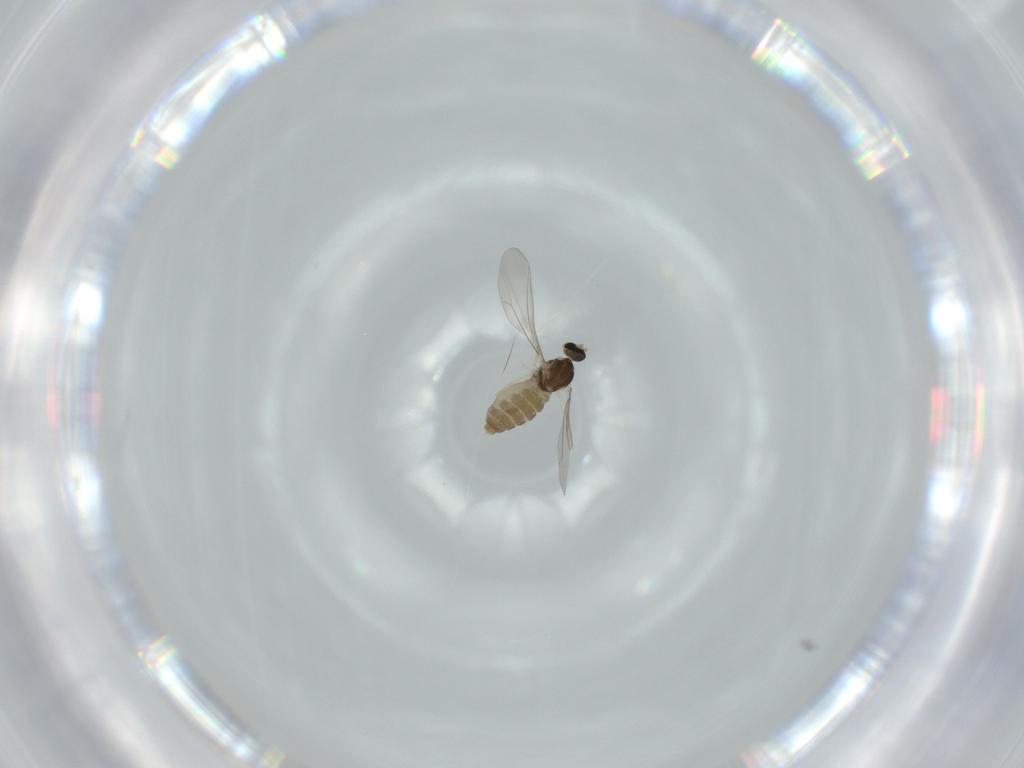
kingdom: Animalia
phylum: Arthropoda
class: Insecta
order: Diptera
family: Cecidomyiidae
